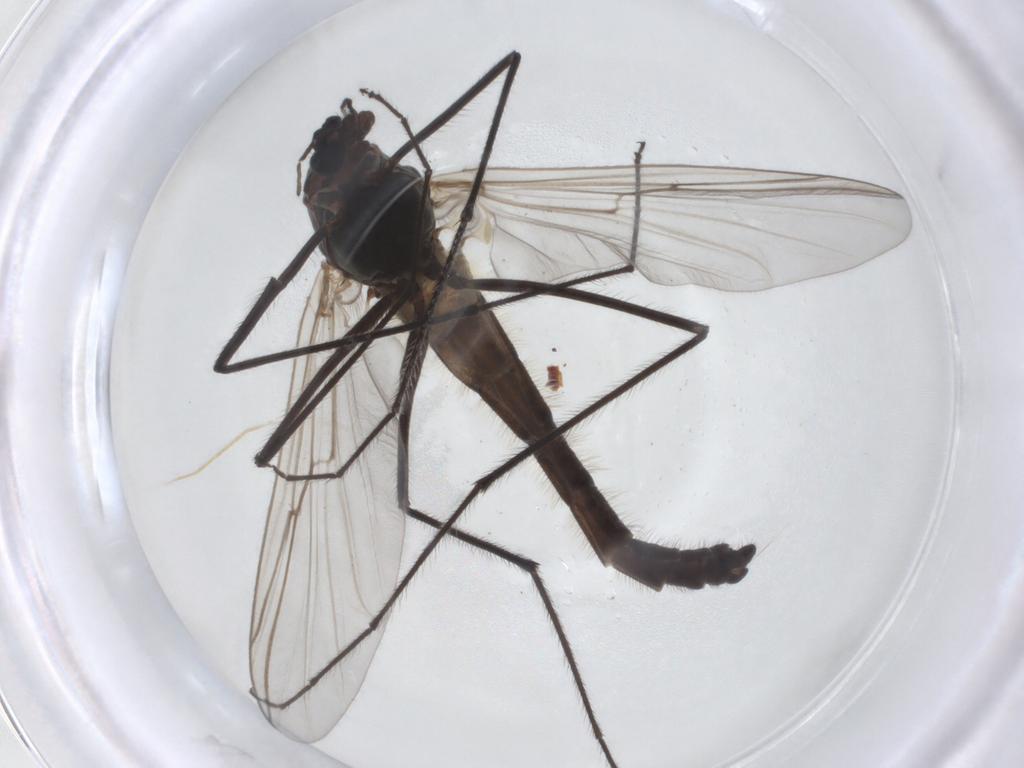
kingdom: Animalia
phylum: Arthropoda
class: Insecta
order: Diptera
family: Chironomidae
